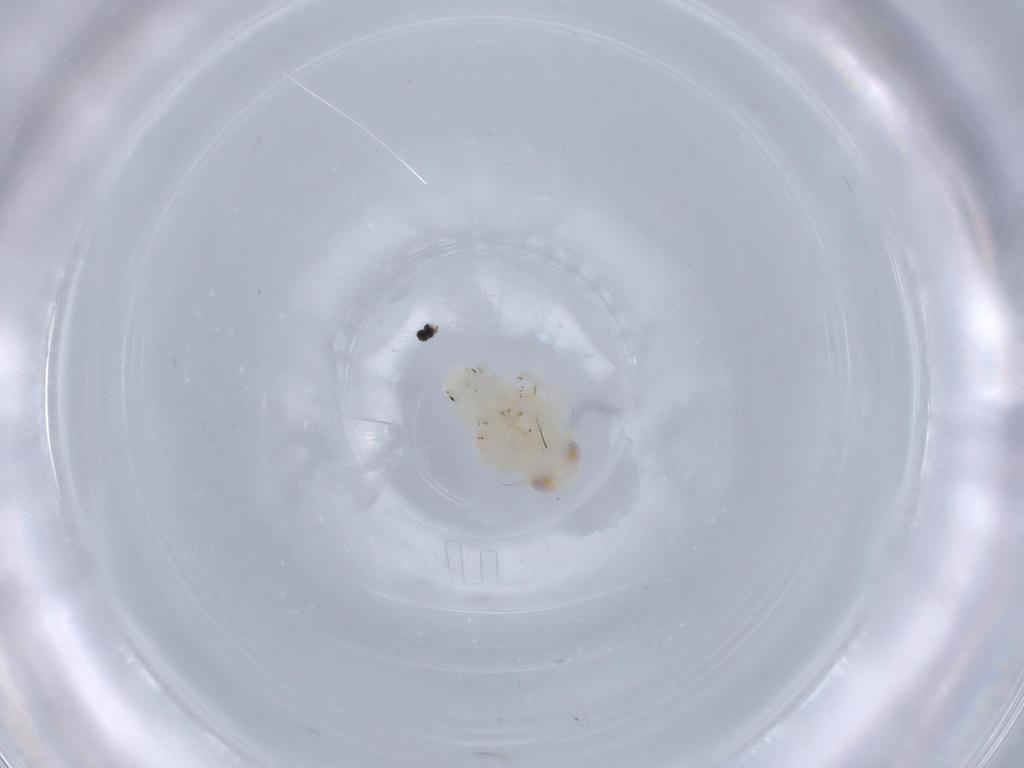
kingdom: Animalia
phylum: Arthropoda
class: Insecta
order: Hemiptera
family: Nogodinidae
